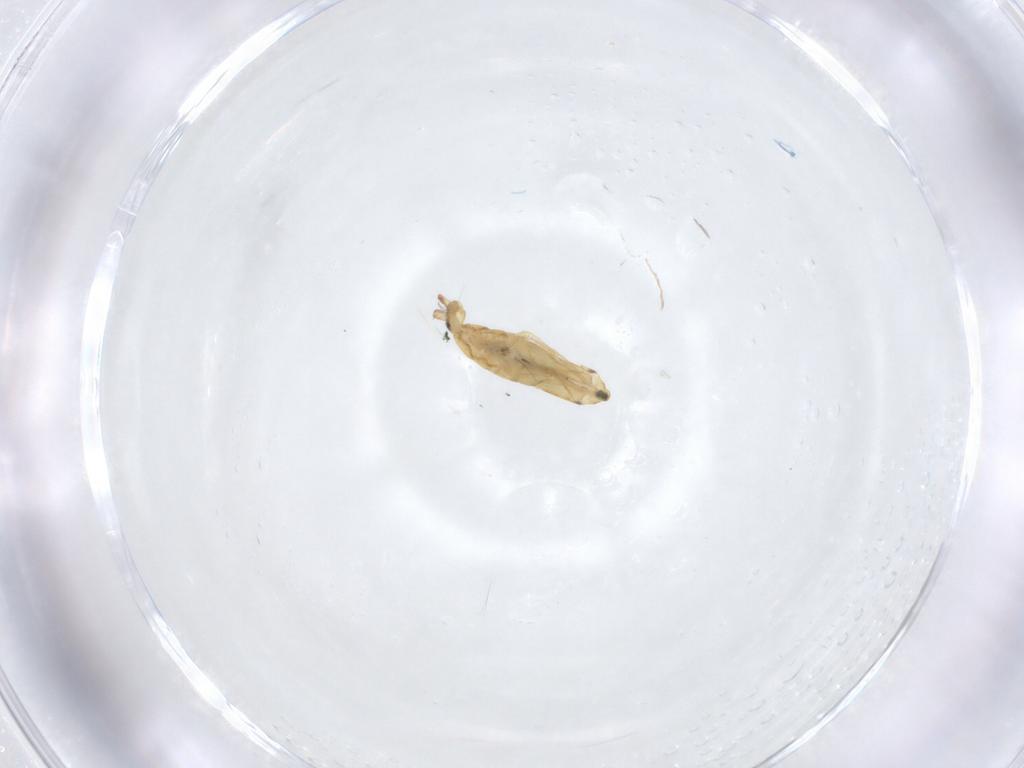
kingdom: Animalia
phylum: Arthropoda
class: Collembola
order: Entomobryomorpha
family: Entomobryidae
